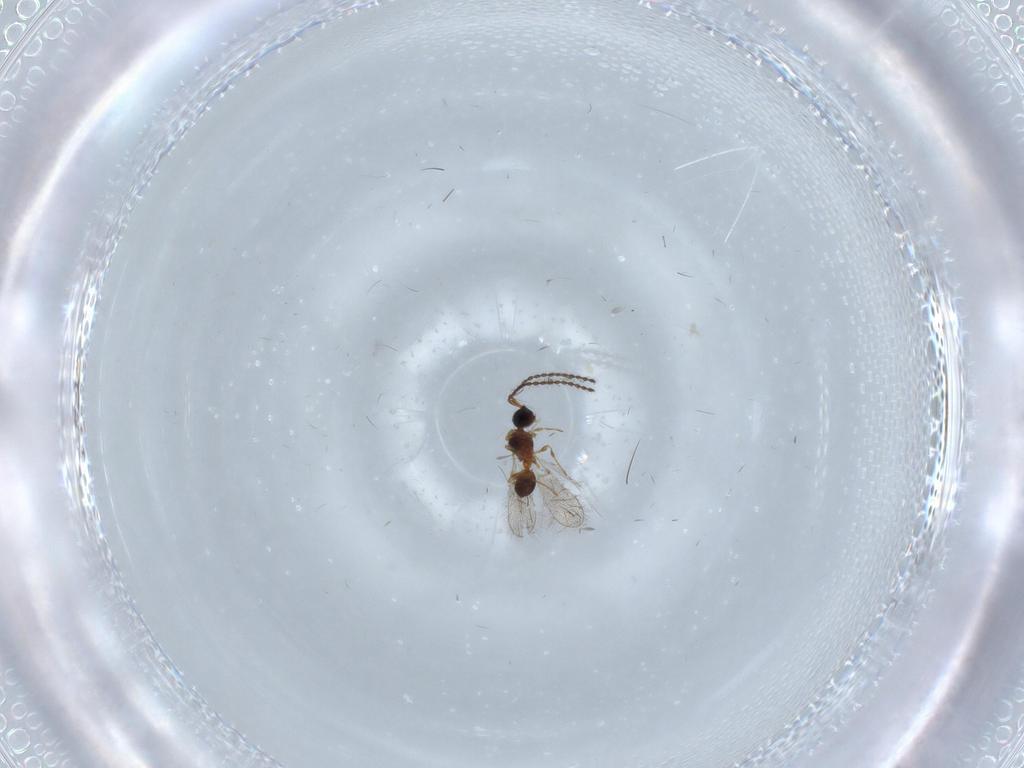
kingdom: Animalia
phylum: Arthropoda
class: Insecta
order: Hymenoptera
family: Diapriidae
